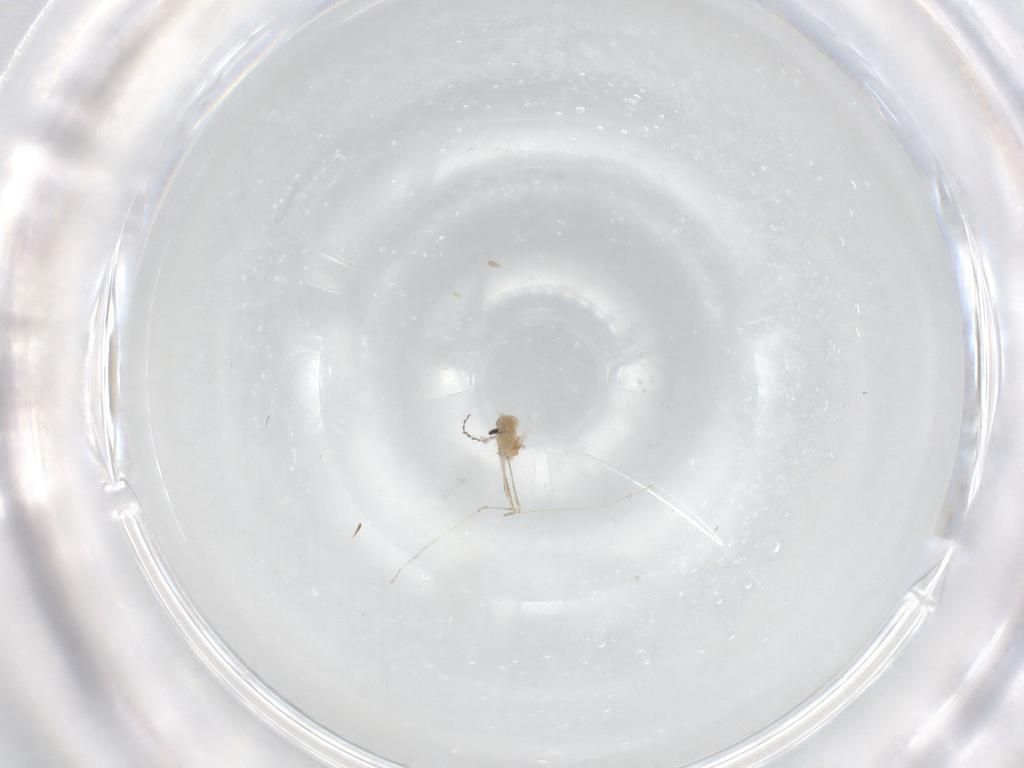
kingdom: Animalia
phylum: Arthropoda
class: Insecta
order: Diptera
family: Cecidomyiidae
